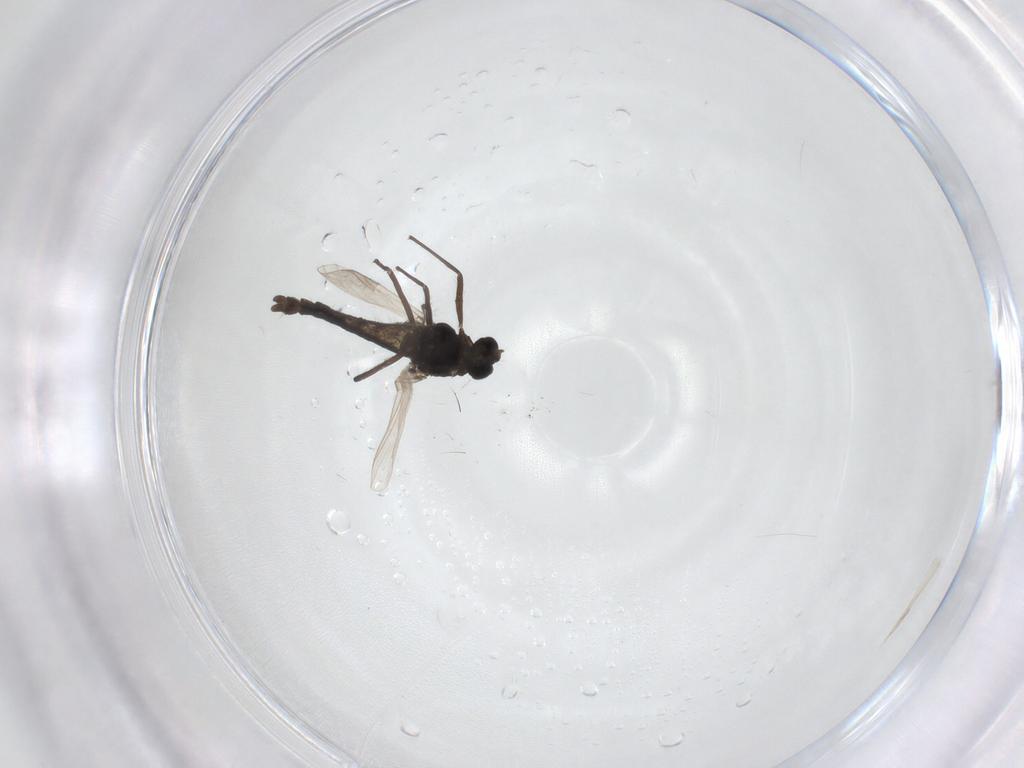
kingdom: Animalia
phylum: Arthropoda
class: Insecta
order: Diptera
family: Chironomidae
